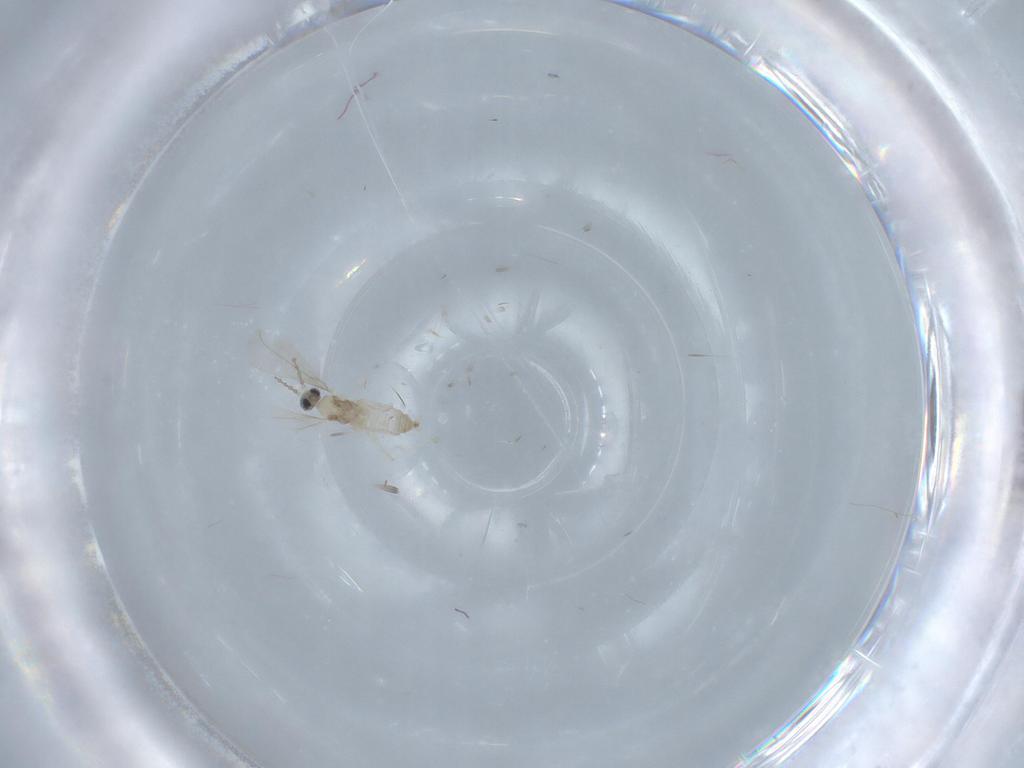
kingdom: Animalia
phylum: Arthropoda
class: Insecta
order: Diptera
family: Cecidomyiidae
